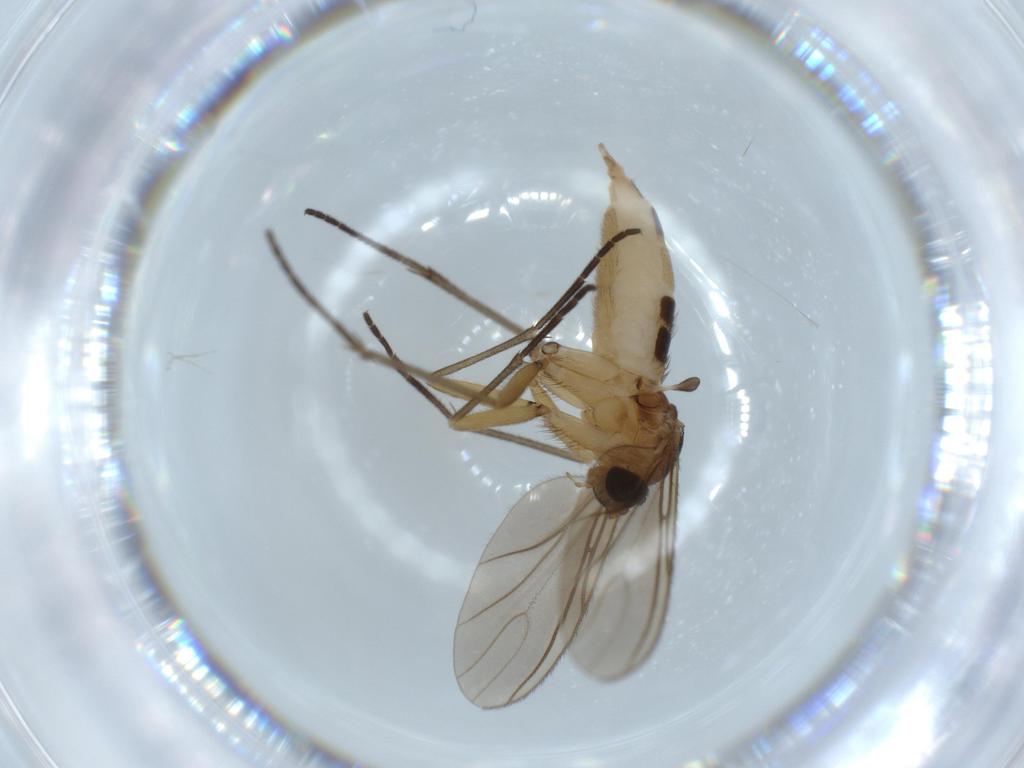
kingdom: Animalia
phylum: Arthropoda
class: Insecta
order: Diptera
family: Sciaridae
